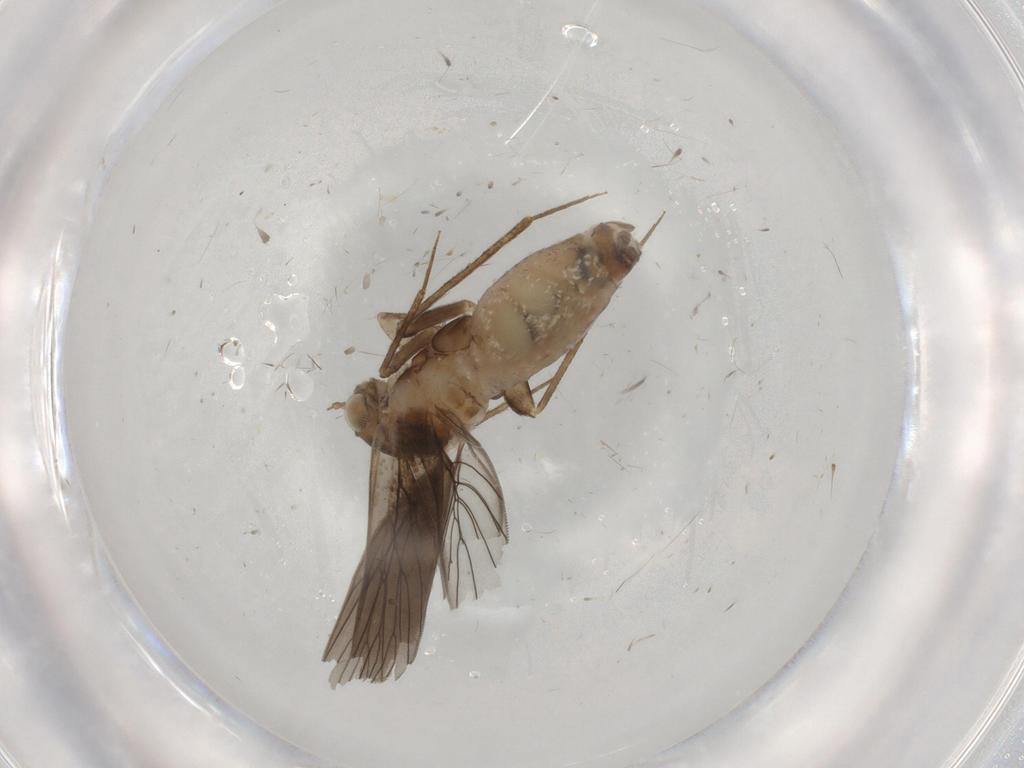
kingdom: Animalia
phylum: Arthropoda
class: Insecta
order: Psocodea
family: Lepidopsocidae
